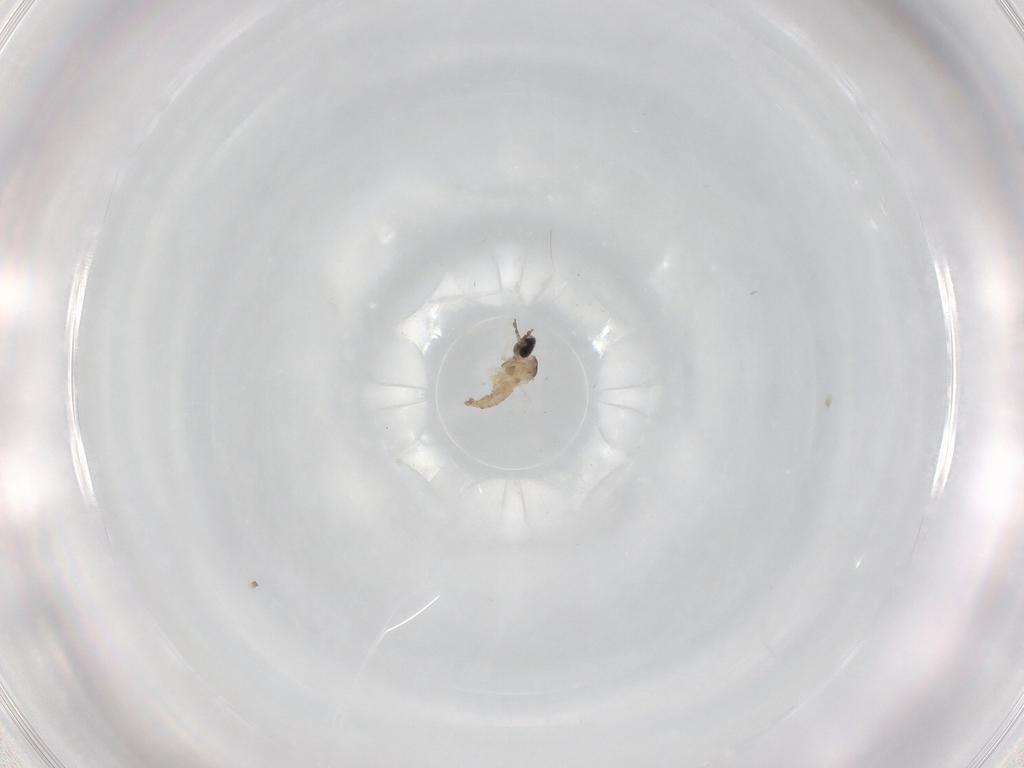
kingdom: Animalia
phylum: Arthropoda
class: Insecta
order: Diptera
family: Cecidomyiidae
